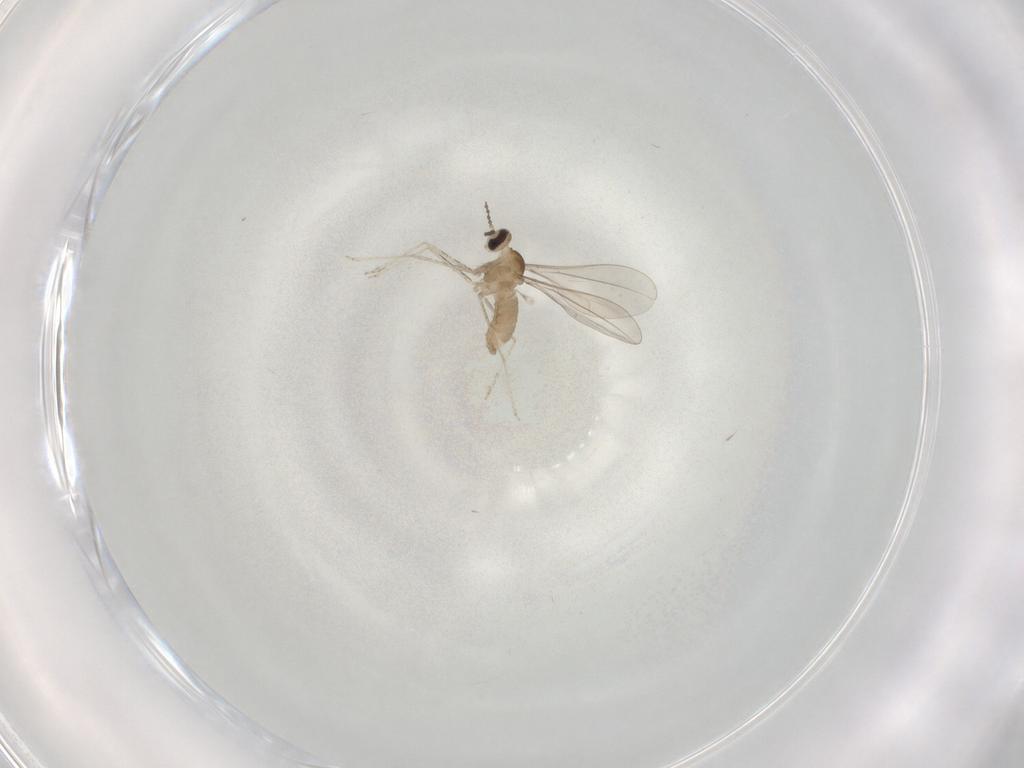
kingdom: Animalia
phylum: Arthropoda
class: Insecta
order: Diptera
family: Cecidomyiidae
